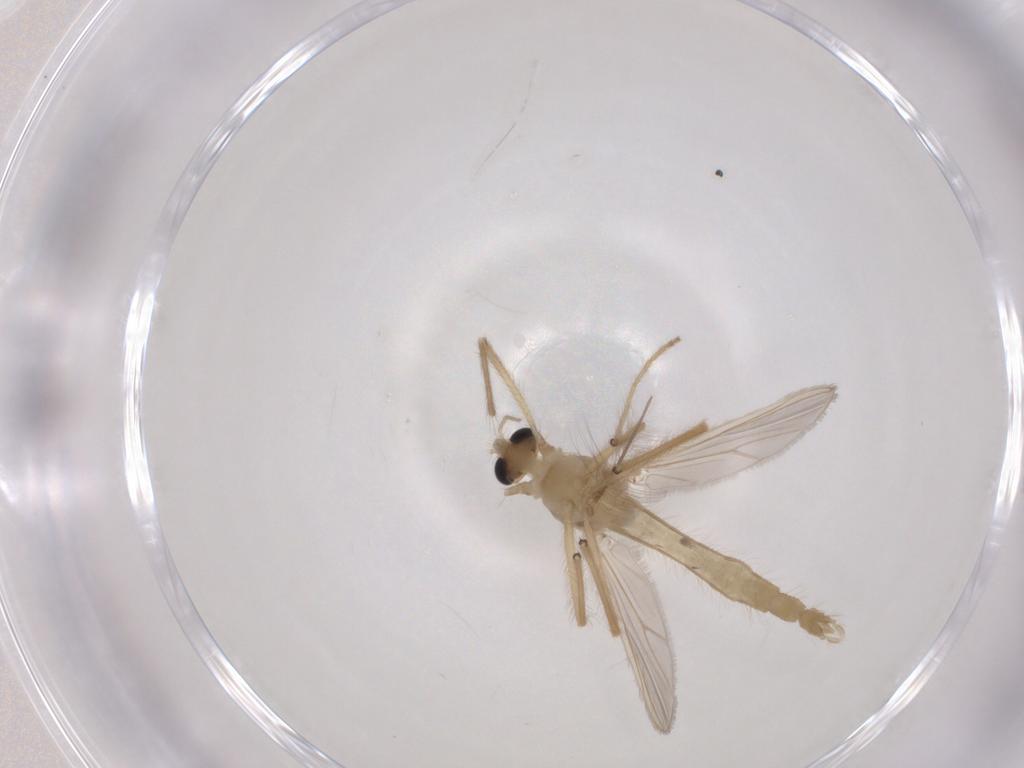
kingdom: Animalia
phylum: Arthropoda
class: Insecta
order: Diptera
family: Chironomidae
